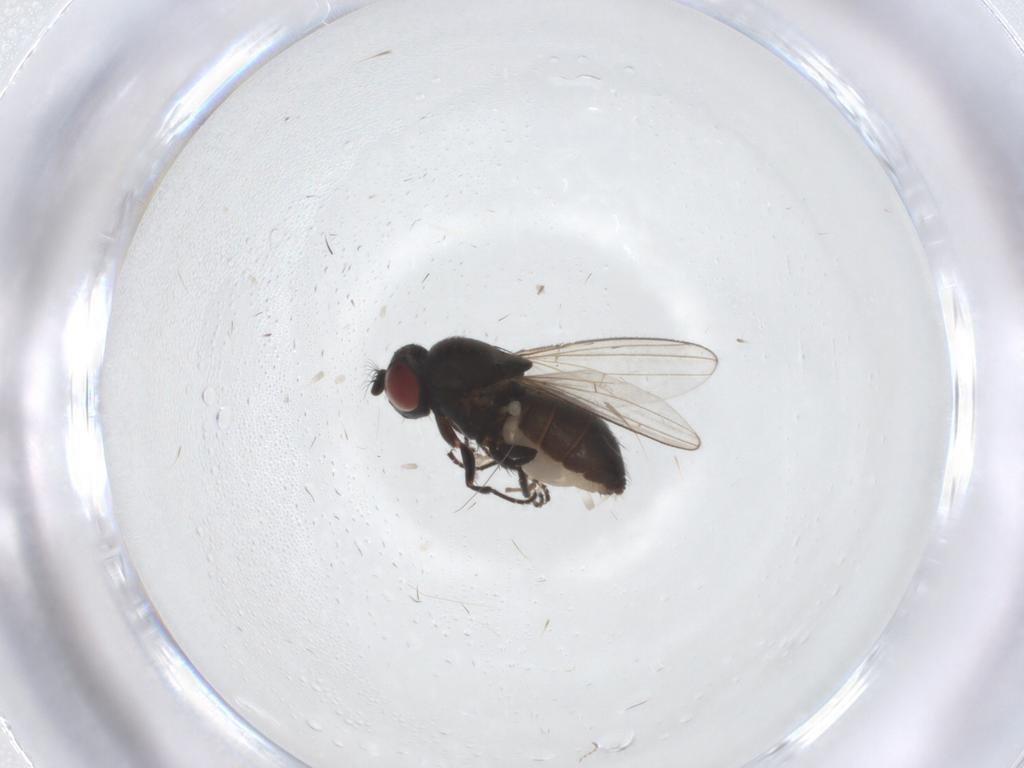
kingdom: Animalia
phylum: Arthropoda
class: Insecta
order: Diptera
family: Ephydridae
